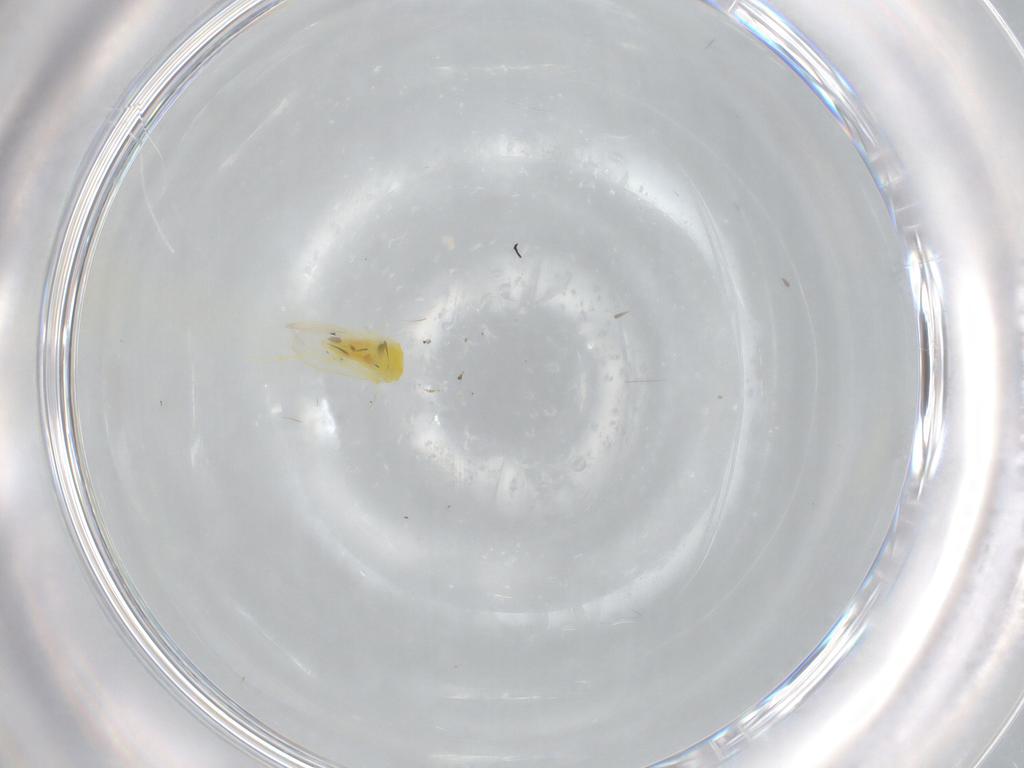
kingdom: Animalia
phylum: Arthropoda
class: Insecta
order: Hemiptera
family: Aleyrodidae
